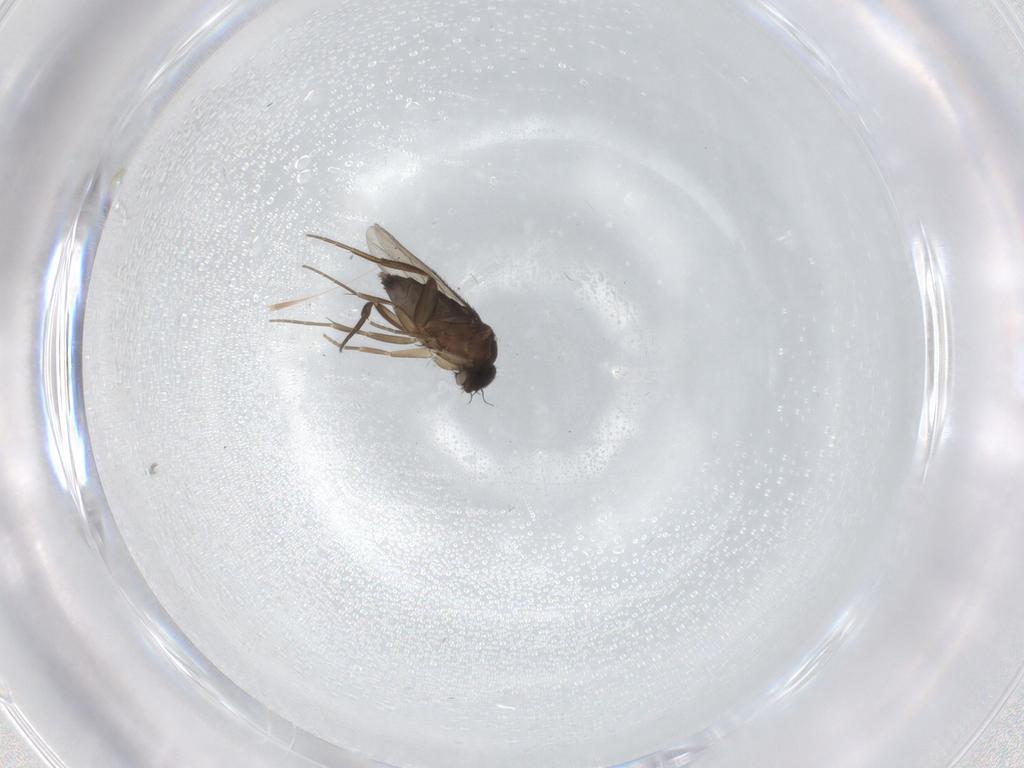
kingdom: Animalia
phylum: Arthropoda
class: Insecta
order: Diptera
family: Phoridae
